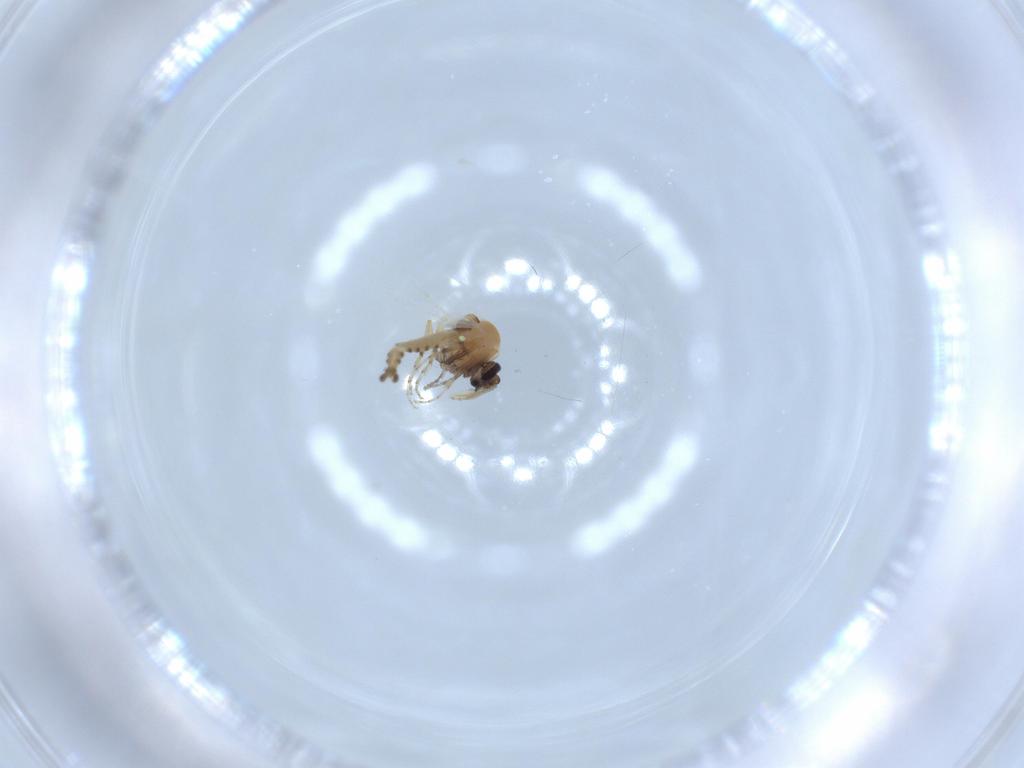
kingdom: Animalia
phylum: Arthropoda
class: Insecta
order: Diptera
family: Ceratopogonidae
